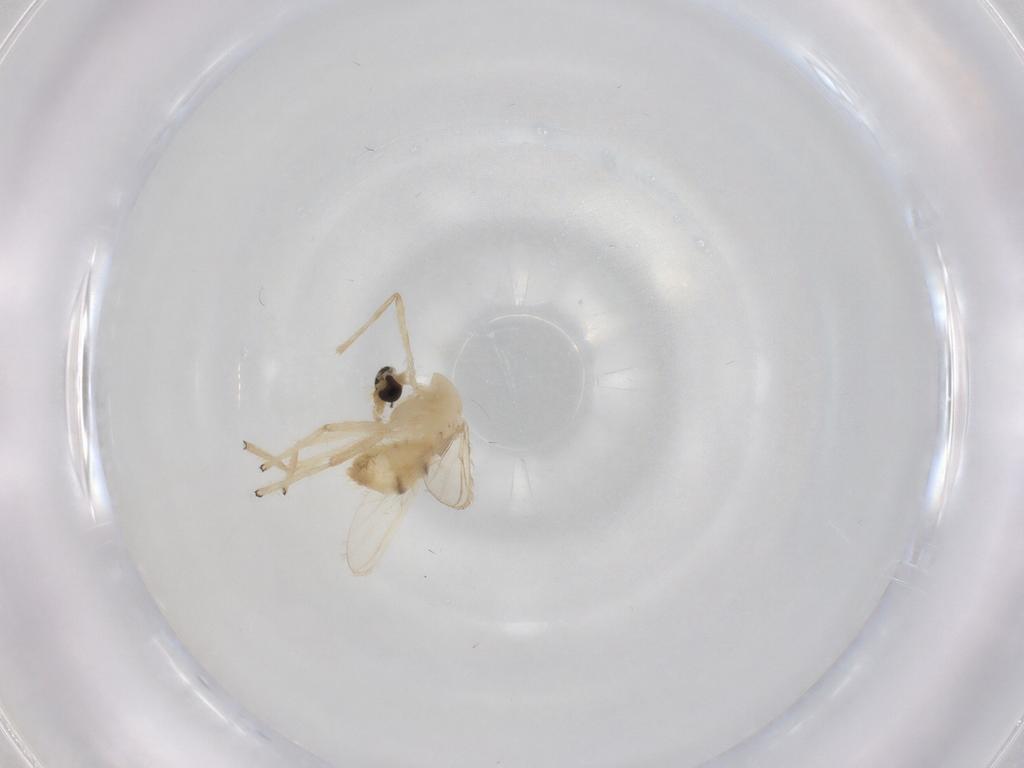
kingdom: Animalia
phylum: Arthropoda
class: Insecta
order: Diptera
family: Chironomidae
